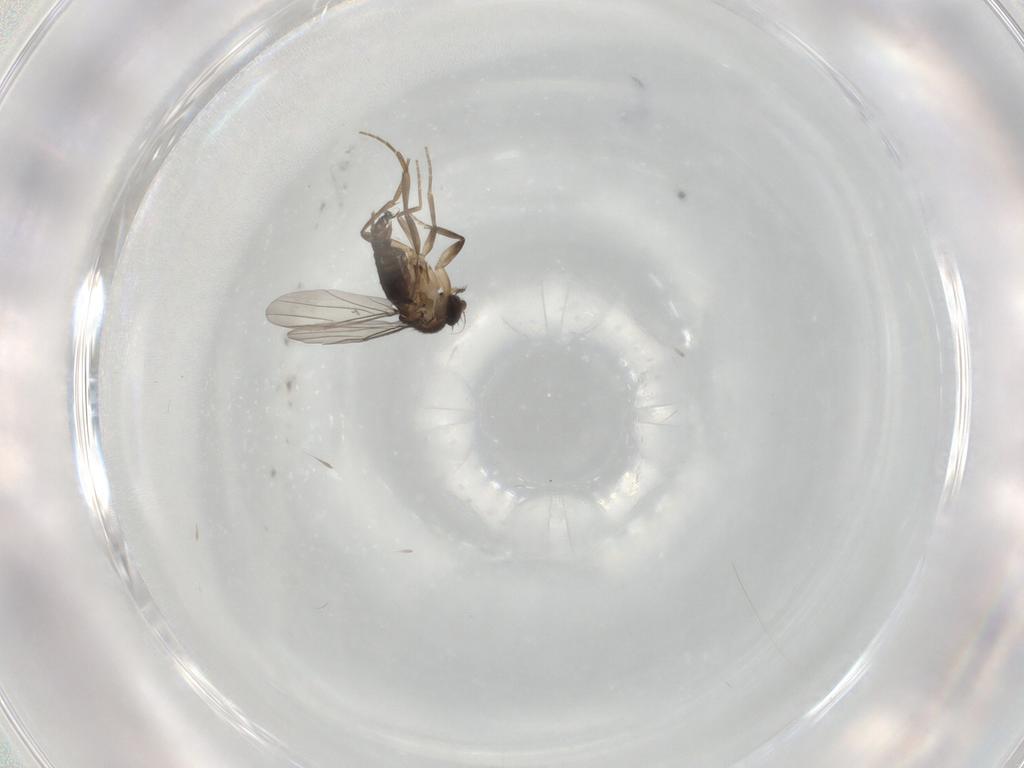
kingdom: Animalia
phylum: Arthropoda
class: Insecta
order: Diptera
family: Phoridae
